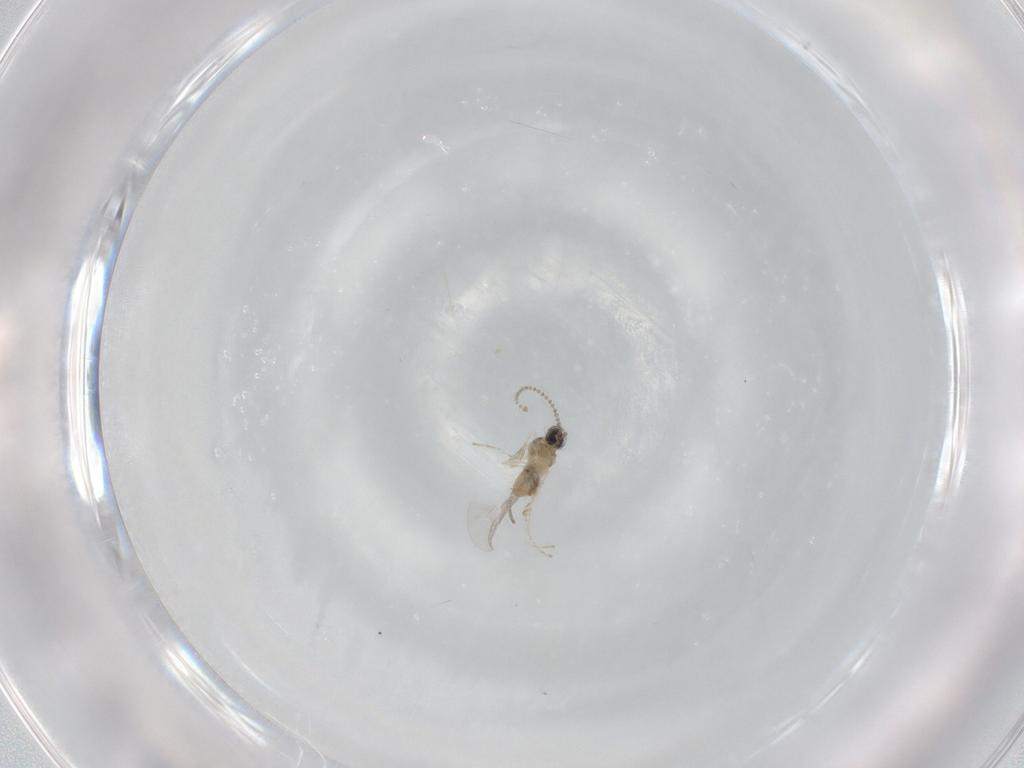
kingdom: Animalia
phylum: Arthropoda
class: Insecta
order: Diptera
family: Cecidomyiidae
